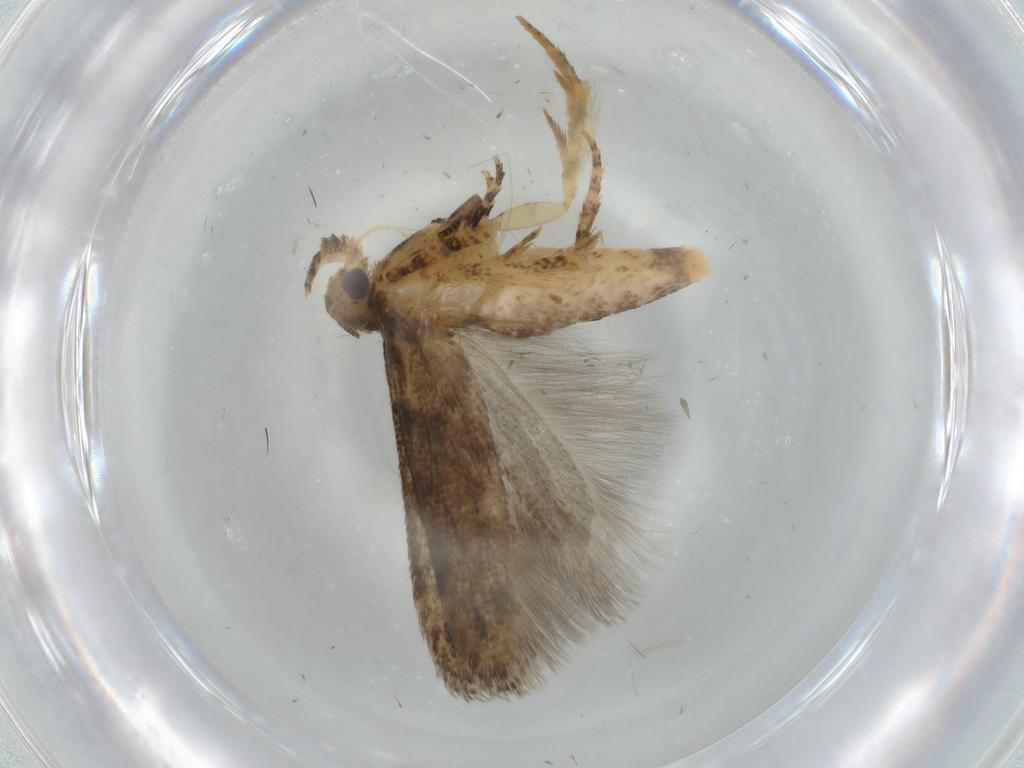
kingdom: Animalia
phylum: Arthropoda
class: Insecta
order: Lepidoptera
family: Gelechiidae
